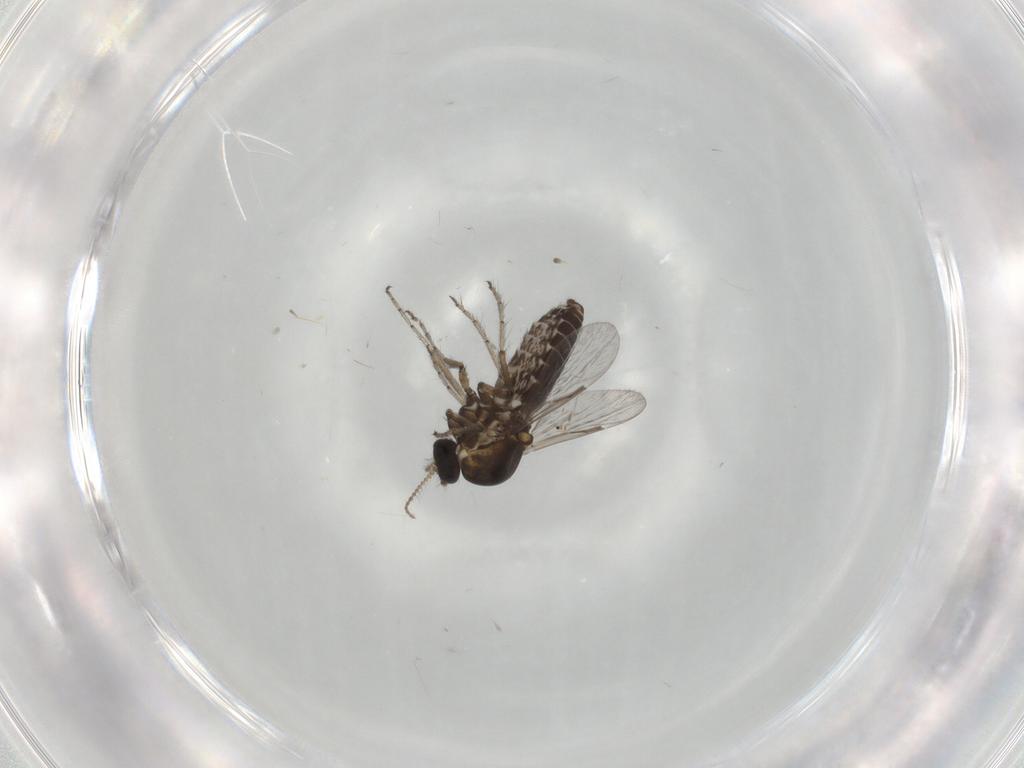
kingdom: Animalia
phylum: Arthropoda
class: Insecta
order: Diptera
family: Ceratopogonidae
